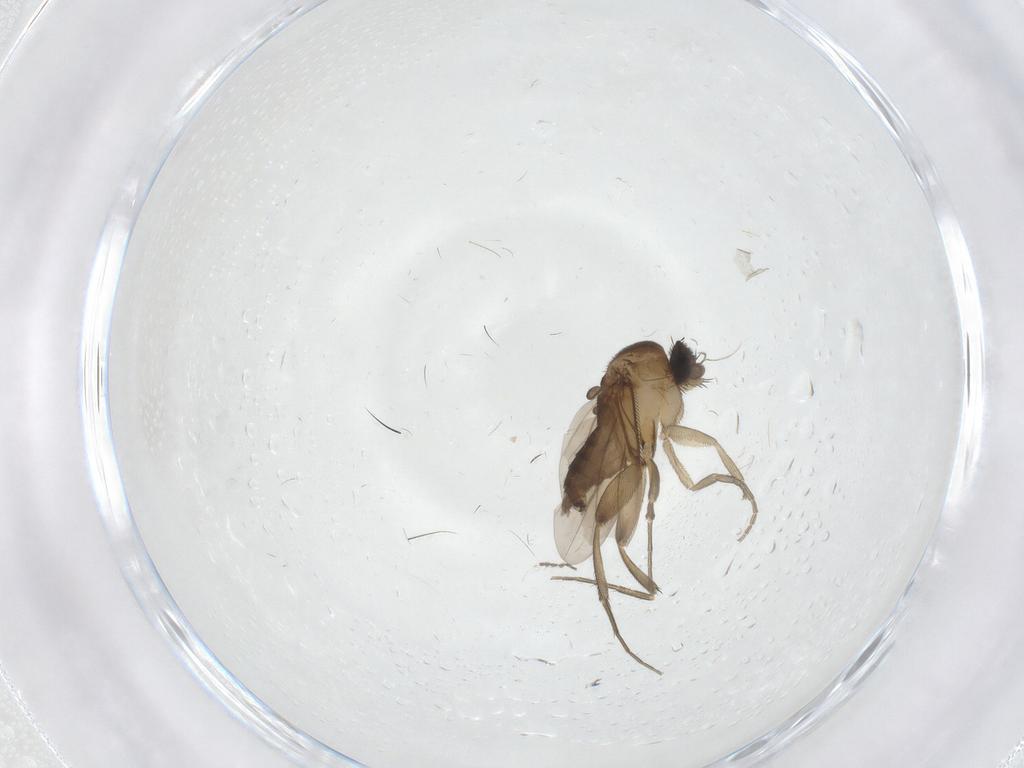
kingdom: Animalia
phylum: Arthropoda
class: Insecta
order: Diptera
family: Phoridae
